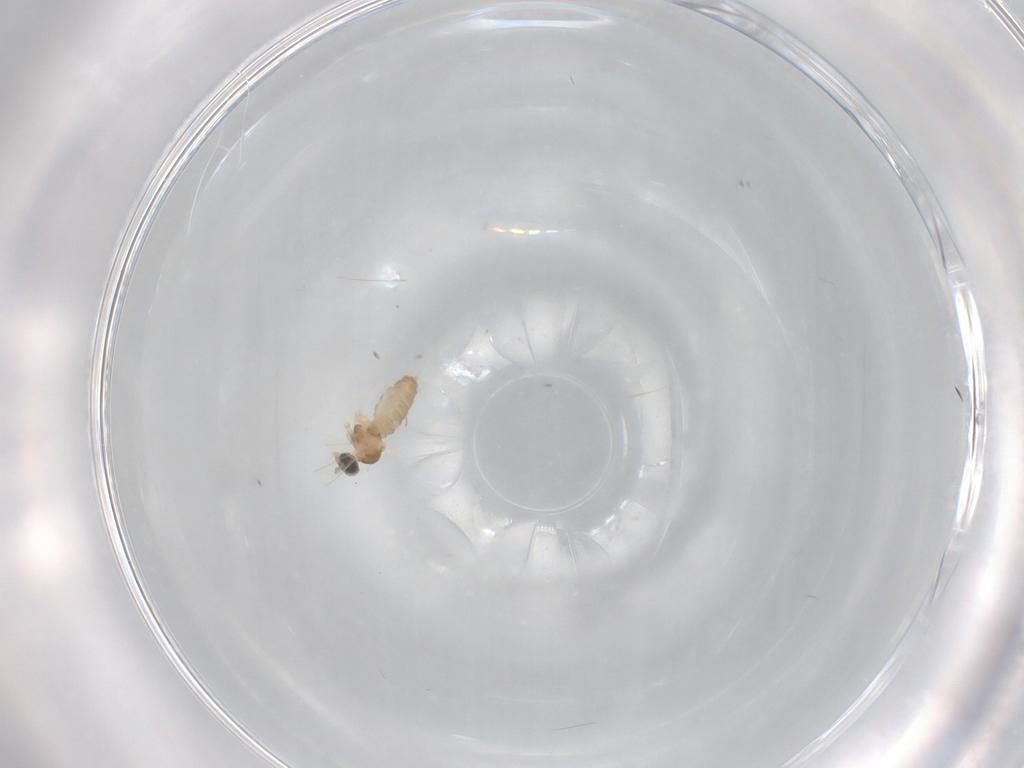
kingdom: Animalia
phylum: Arthropoda
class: Insecta
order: Diptera
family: Cecidomyiidae
